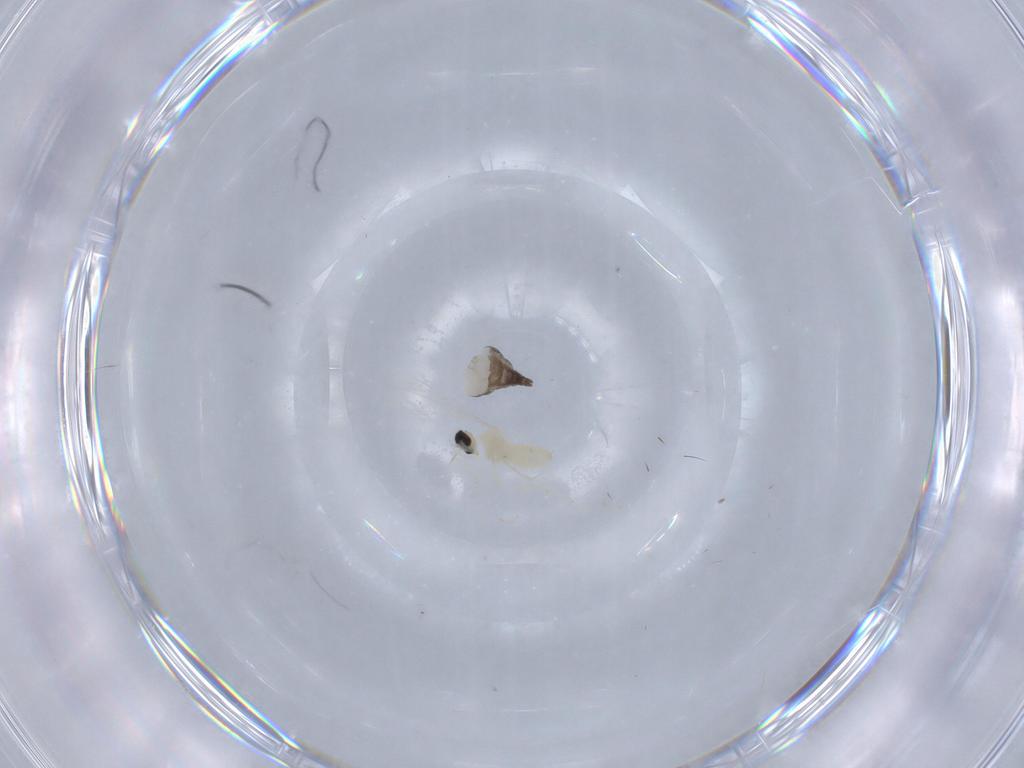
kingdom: Animalia
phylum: Arthropoda
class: Insecta
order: Diptera
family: Cecidomyiidae
